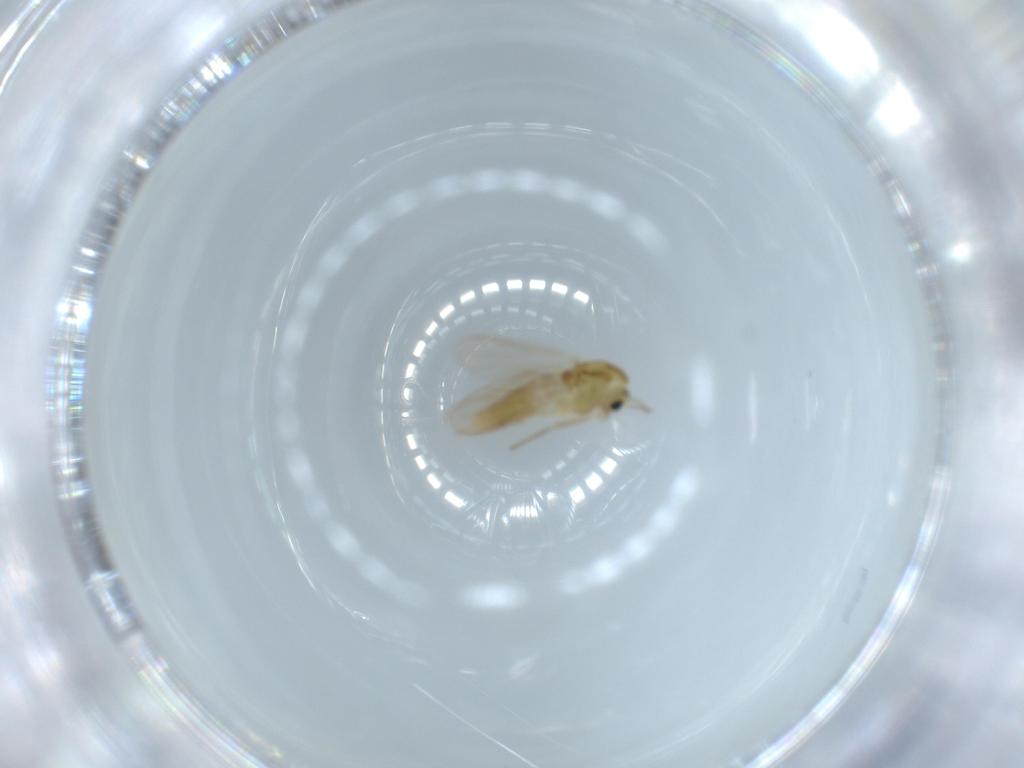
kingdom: Animalia
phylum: Arthropoda
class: Insecta
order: Diptera
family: Chironomidae
